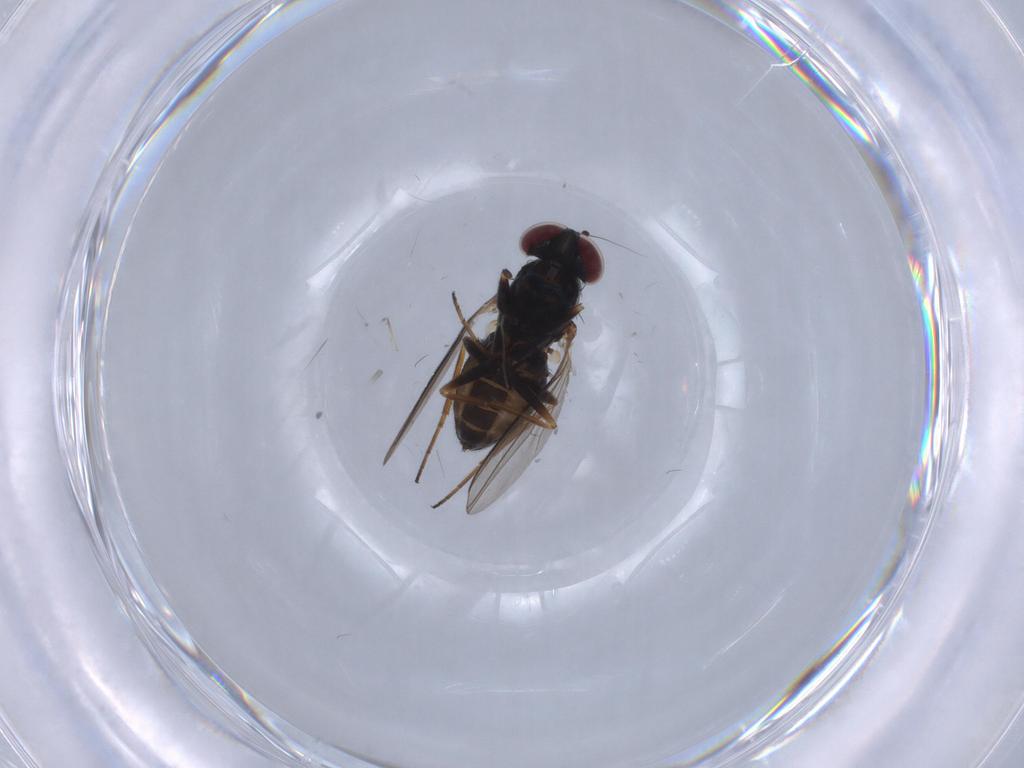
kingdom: Animalia
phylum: Arthropoda
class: Insecta
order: Diptera
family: Dolichopodidae
